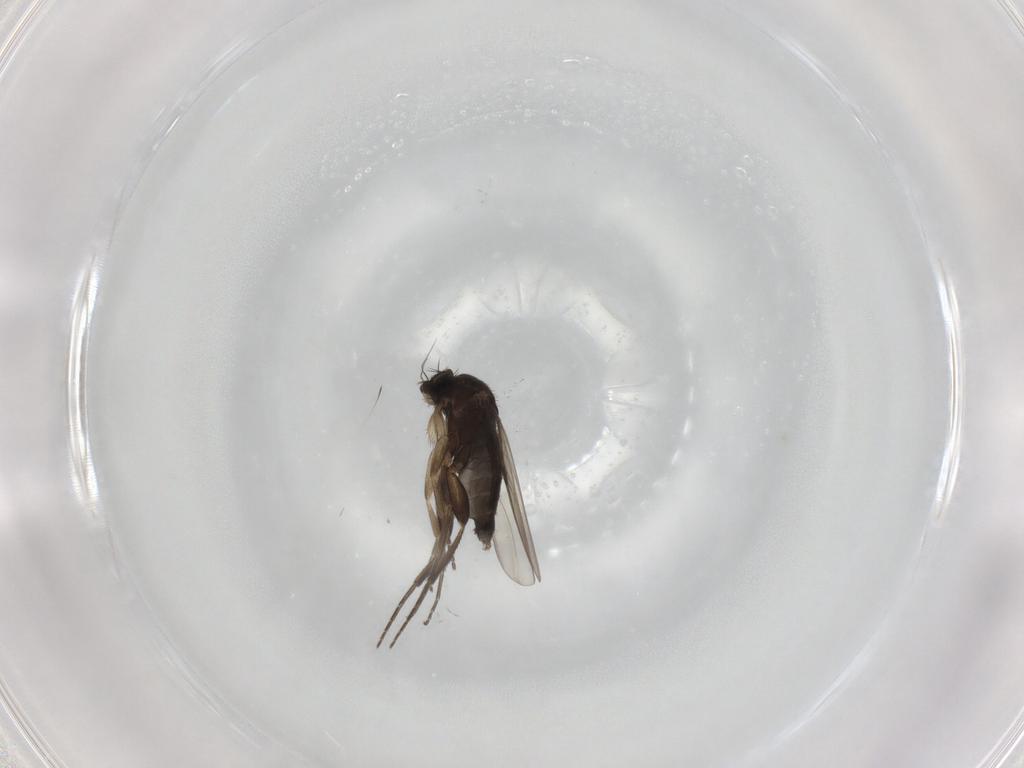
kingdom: Animalia
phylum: Arthropoda
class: Insecta
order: Diptera
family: Phoridae
